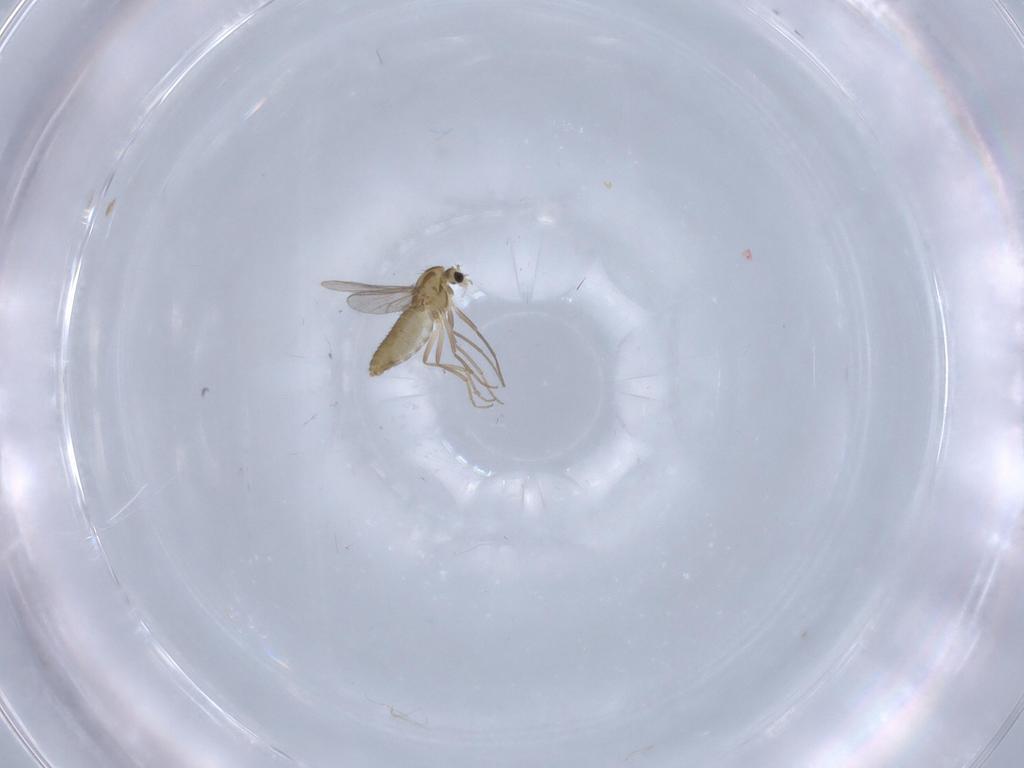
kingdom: Animalia
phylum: Arthropoda
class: Insecta
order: Diptera
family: Chironomidae
